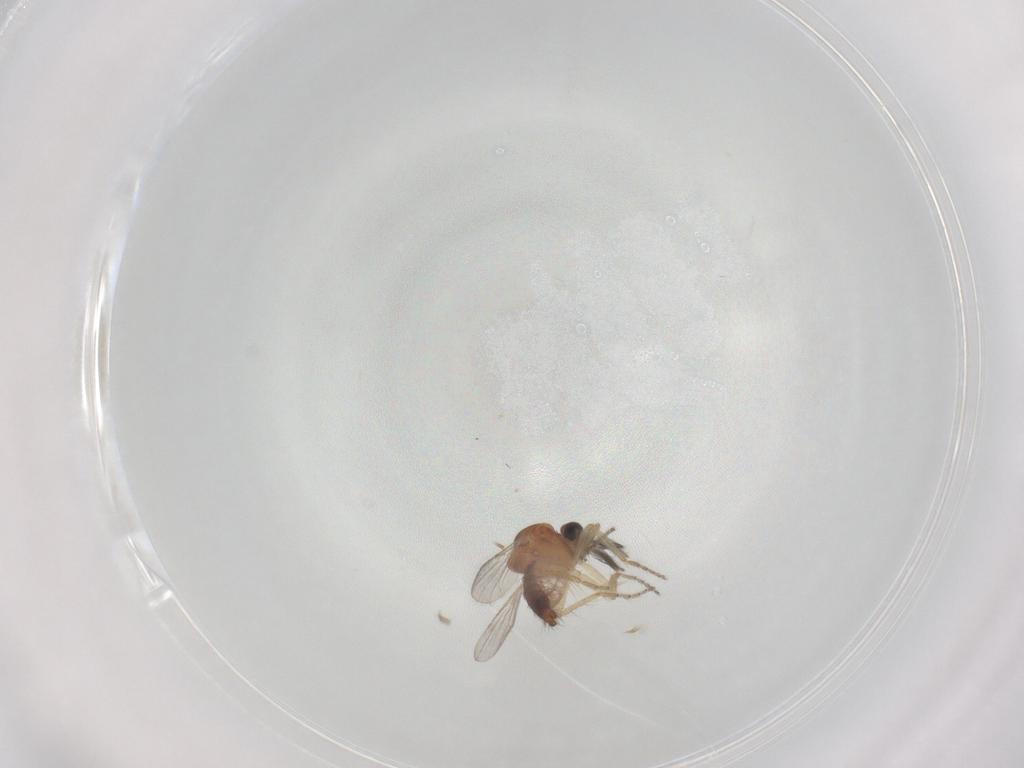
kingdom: Animalia
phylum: Arthropoda
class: Insecta
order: Diptera
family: Ceratopogonidae
